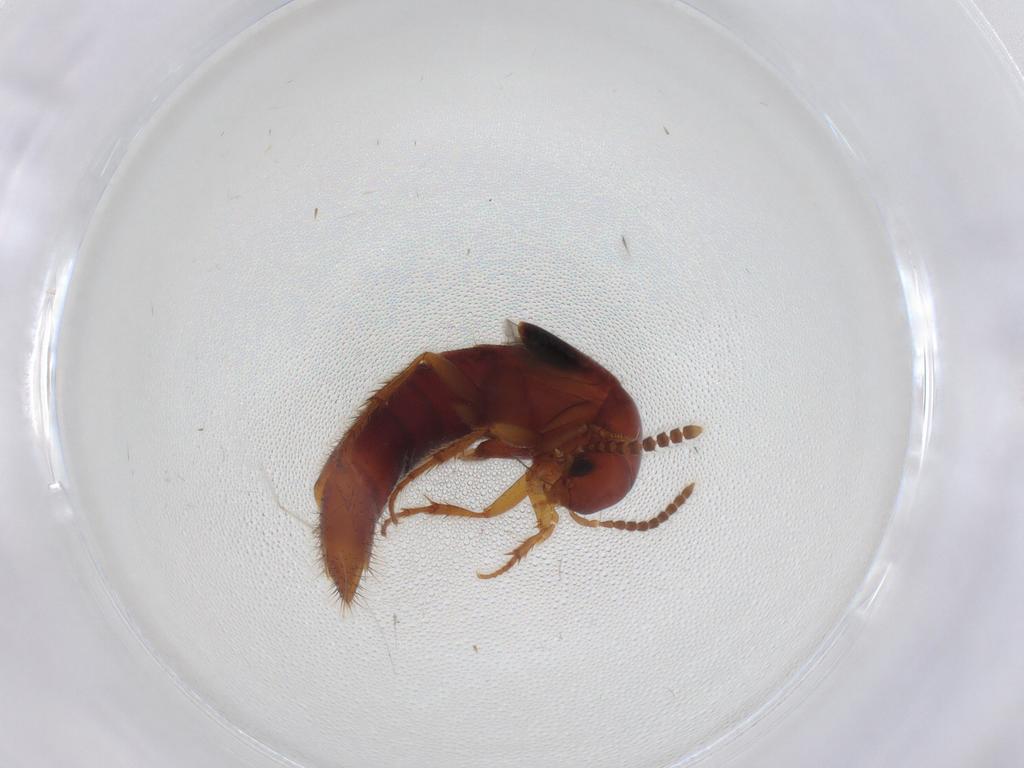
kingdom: Animalia
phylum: Arthropoda
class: Insecta
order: Coleoptera
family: Staphylinidae
